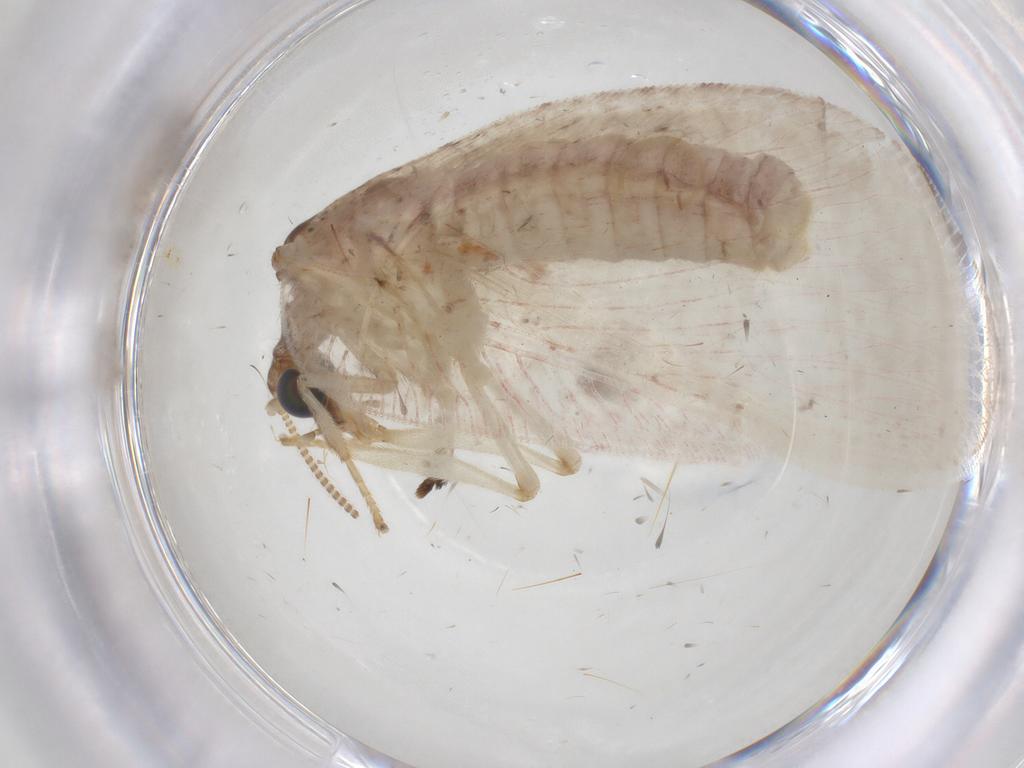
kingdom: Animalia
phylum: Arthropoda
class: Insecta
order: Neuroptera
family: Hemerobiidae
